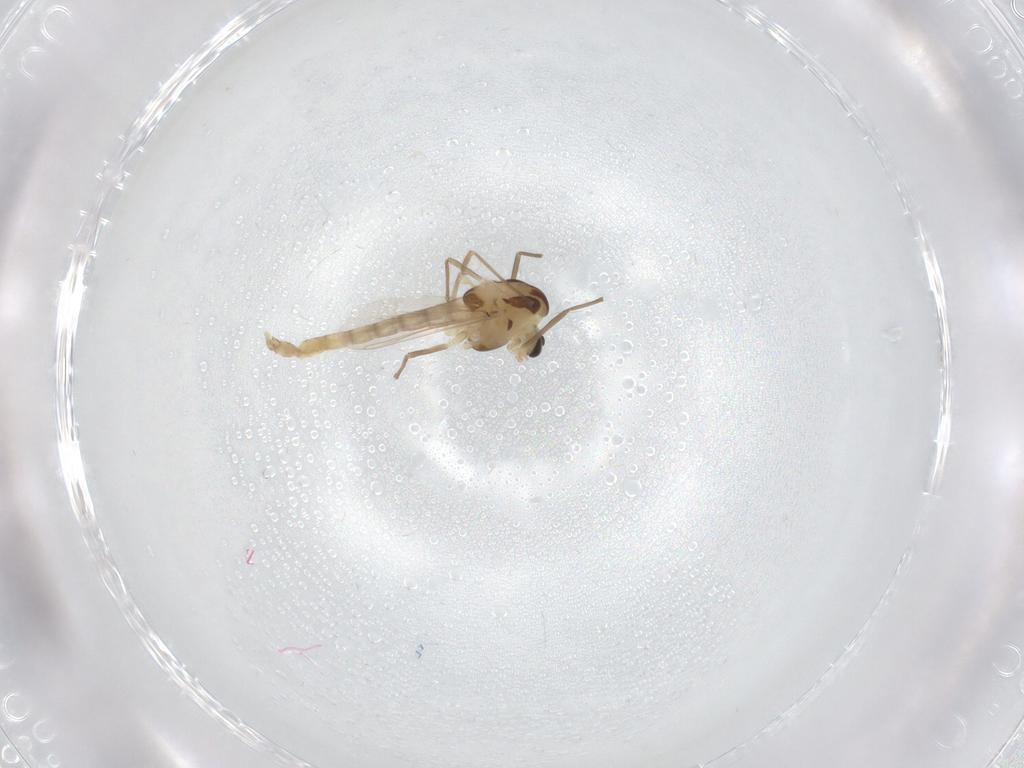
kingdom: Animalia
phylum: Arthropoda
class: Insecta
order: Diptera
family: Chironomidae
